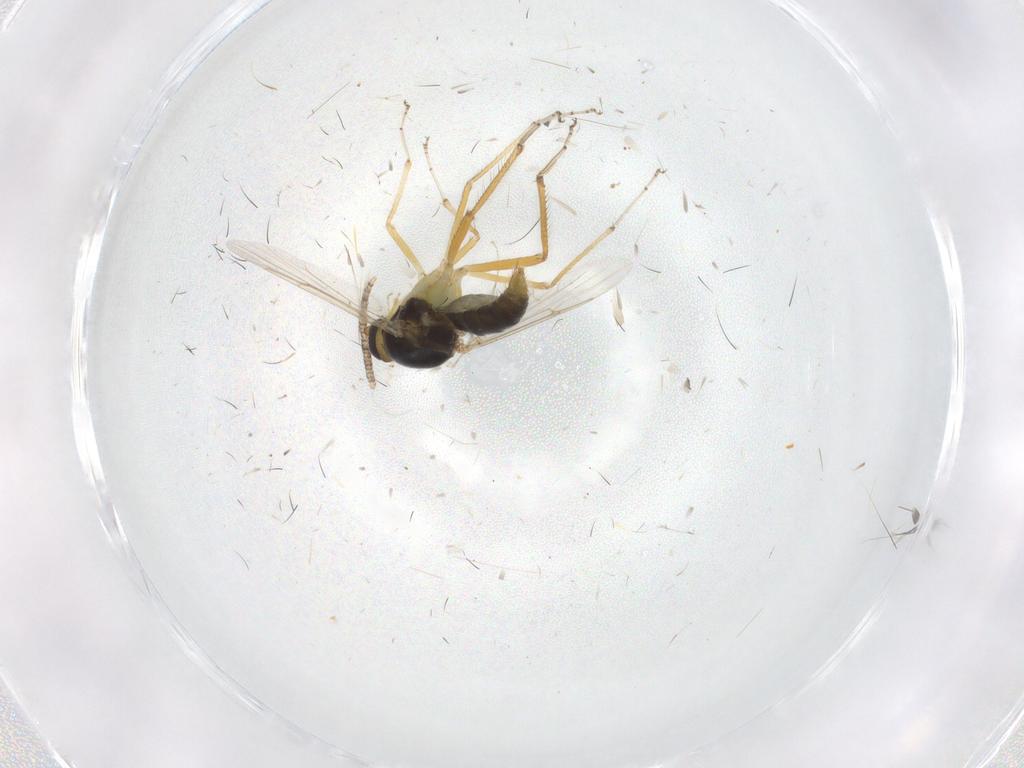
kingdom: Animalia
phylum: Arthropoda
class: Insecta
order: Diptera
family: Ceratopogonidae
